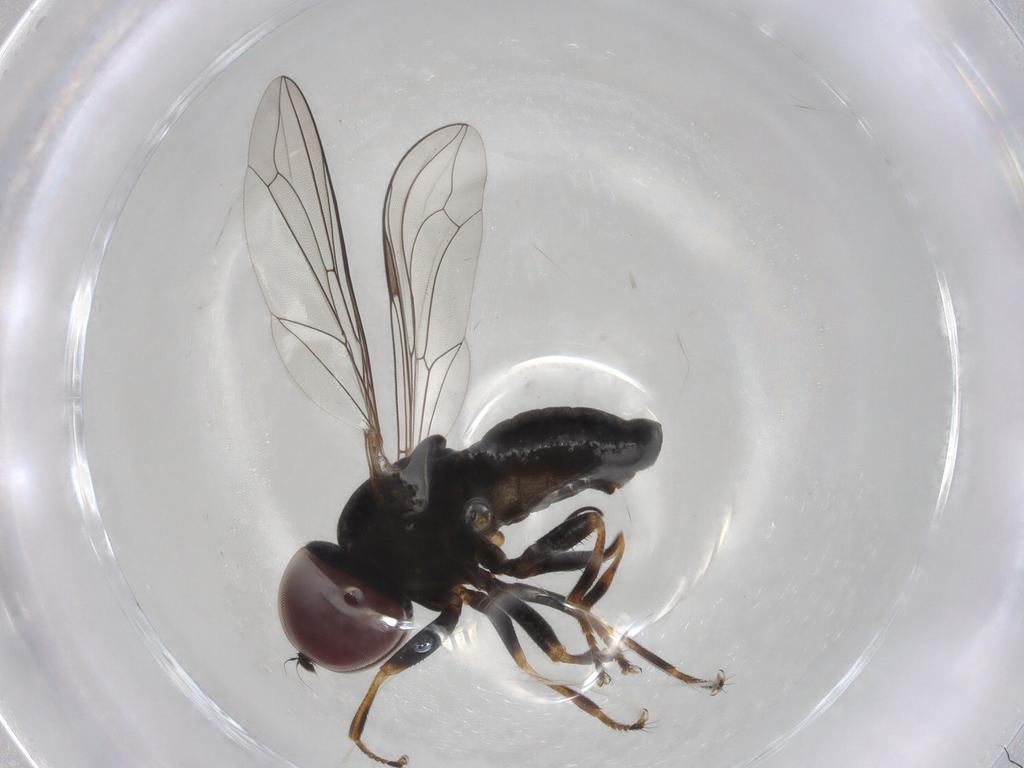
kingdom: Animalia
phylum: Arthropoda
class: Insecta
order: Diptera
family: Pipunculidae
